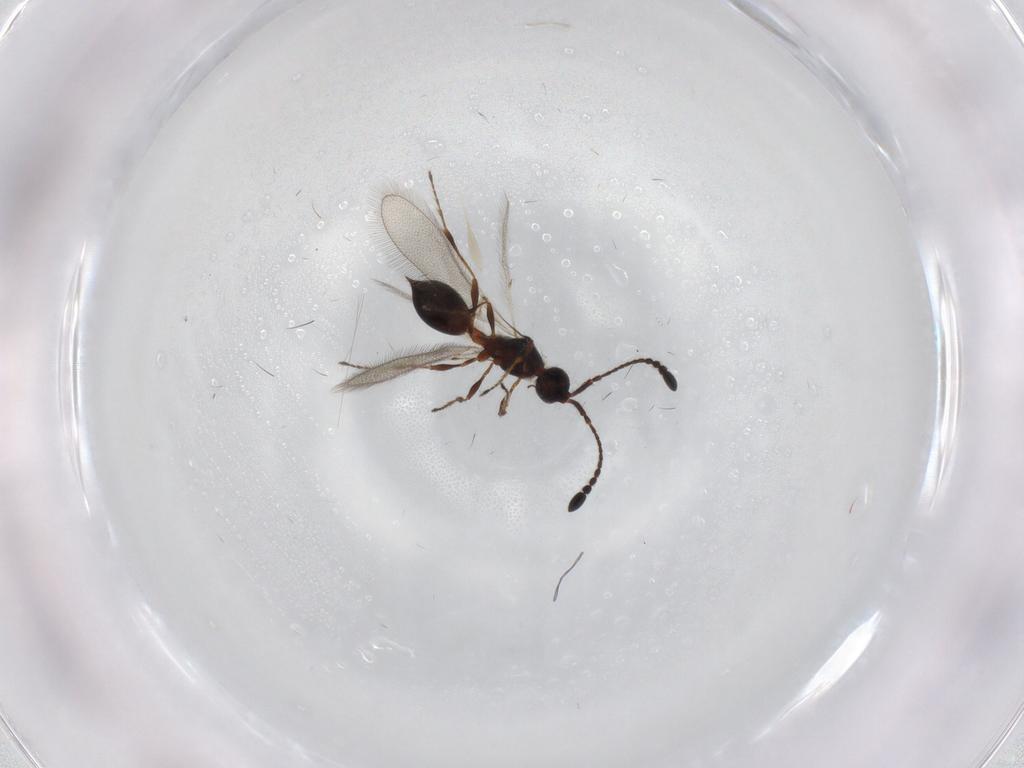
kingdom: Animalia
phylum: Arthropoda
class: Insecta
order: Hymenoptera
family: Diapriidae
